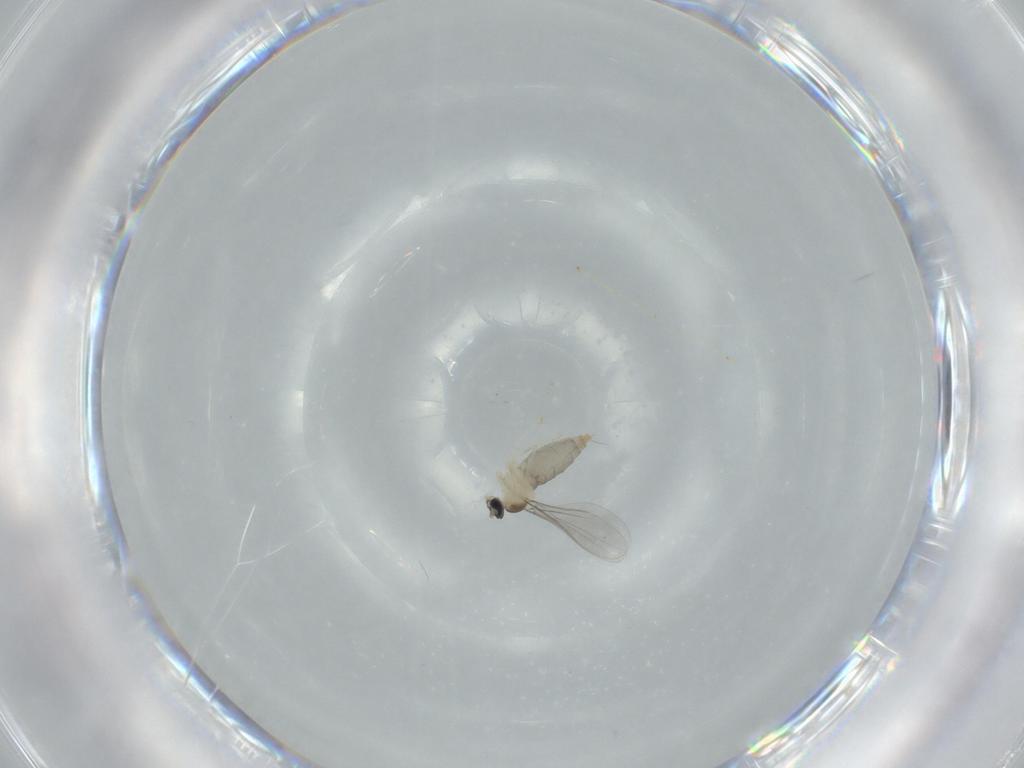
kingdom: Animalia
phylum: Arthropoda
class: Insecta
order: Diptera
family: Cecidomyiidae
